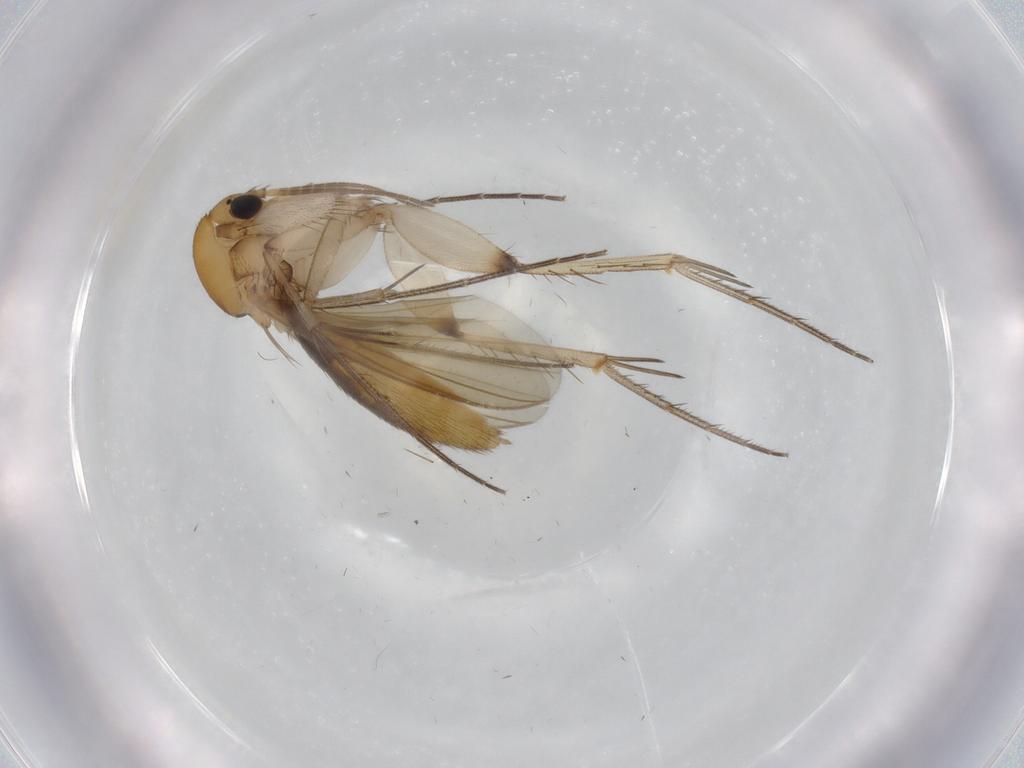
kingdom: Animalia
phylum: Arthropoda
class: Insecta
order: Diptera
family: Mycetophilidae
